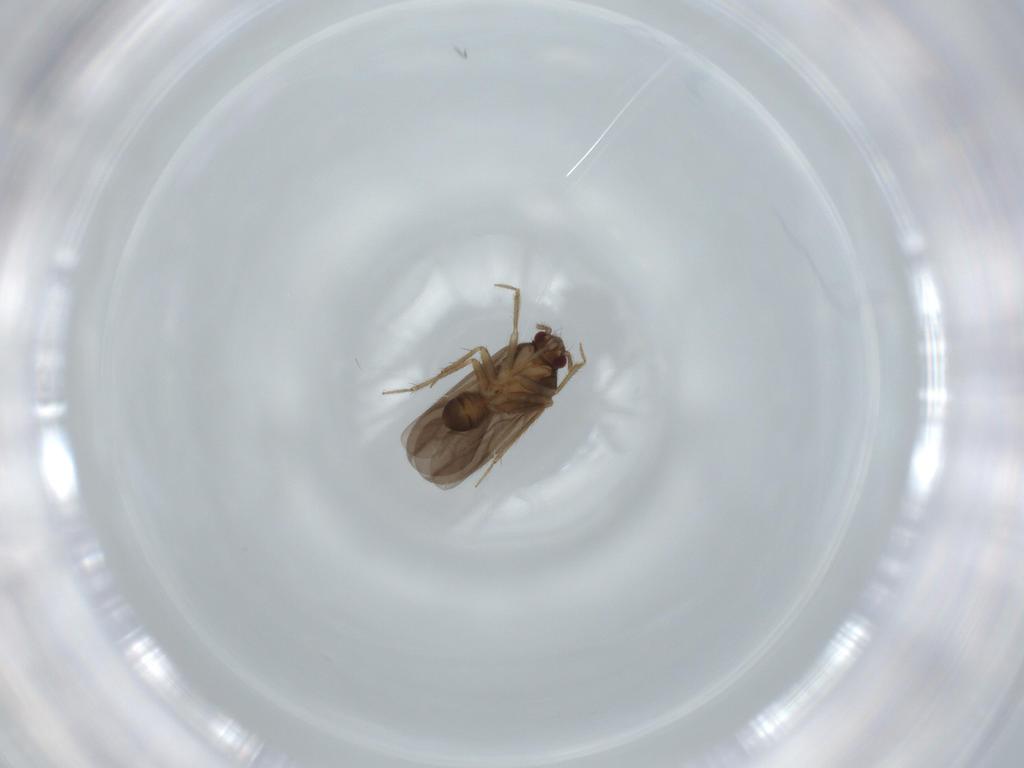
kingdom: Animalia
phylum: Arthropoda
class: Insecta
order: Hemiptera
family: Ceratocombidae
